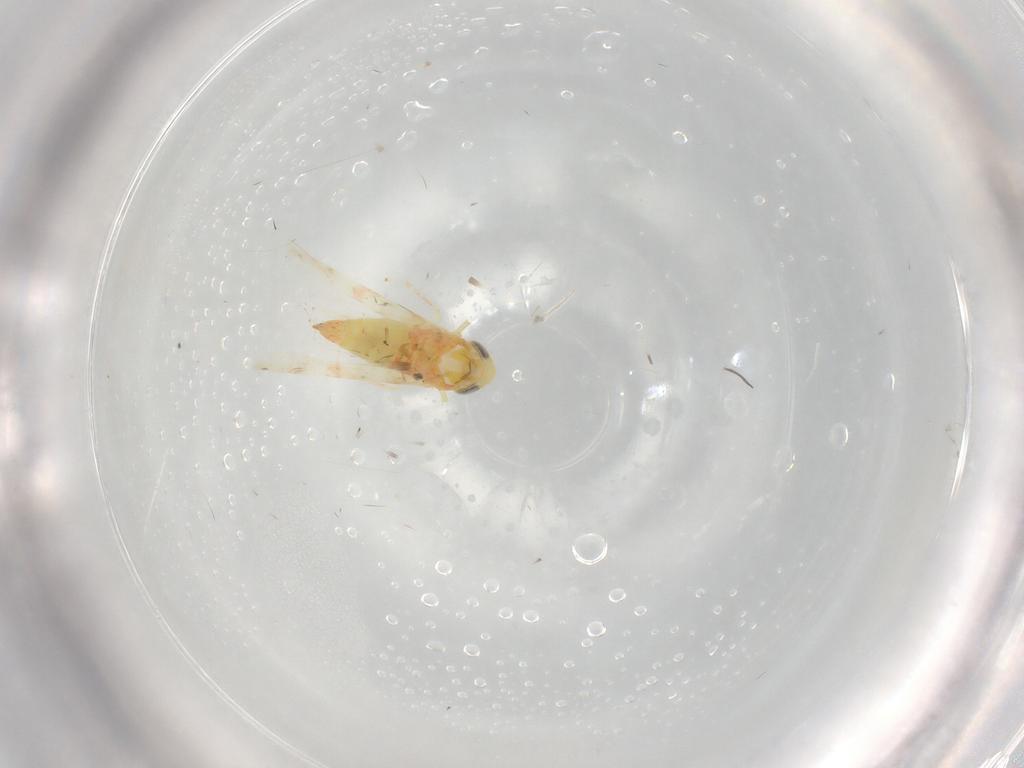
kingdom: Animalia
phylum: Arthropoda
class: Insecta
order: Hemiptera
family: Cicadellidae
